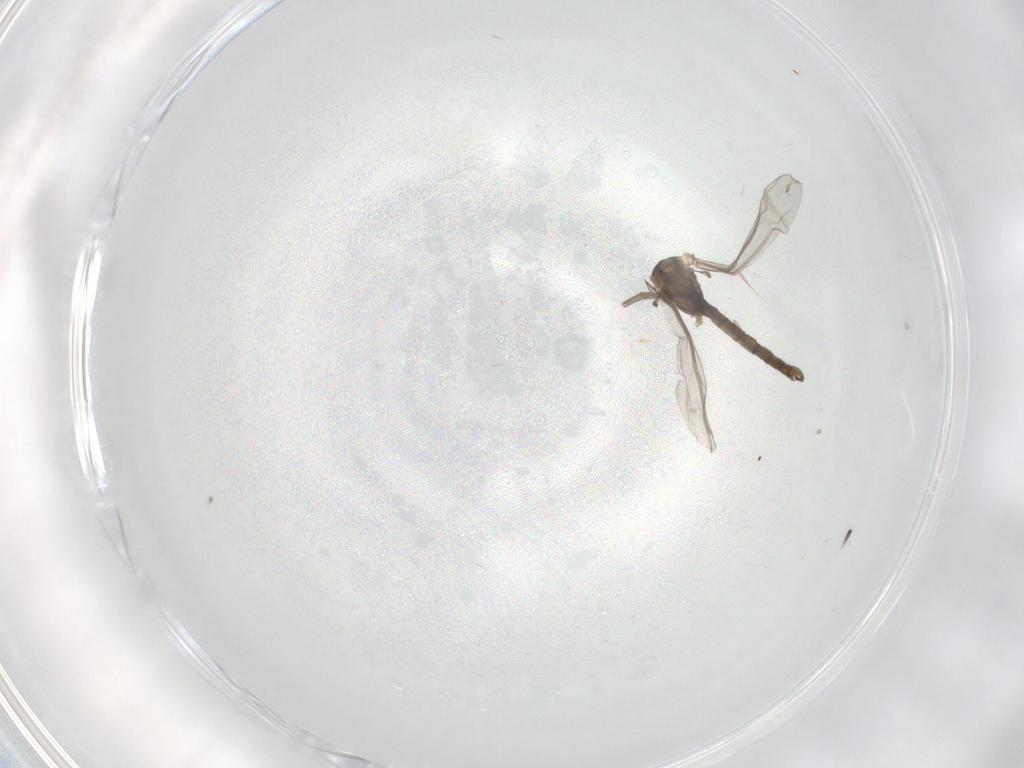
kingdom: Animalia
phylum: Arthropoda
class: Insecta
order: Diptera
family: Chironomidae
